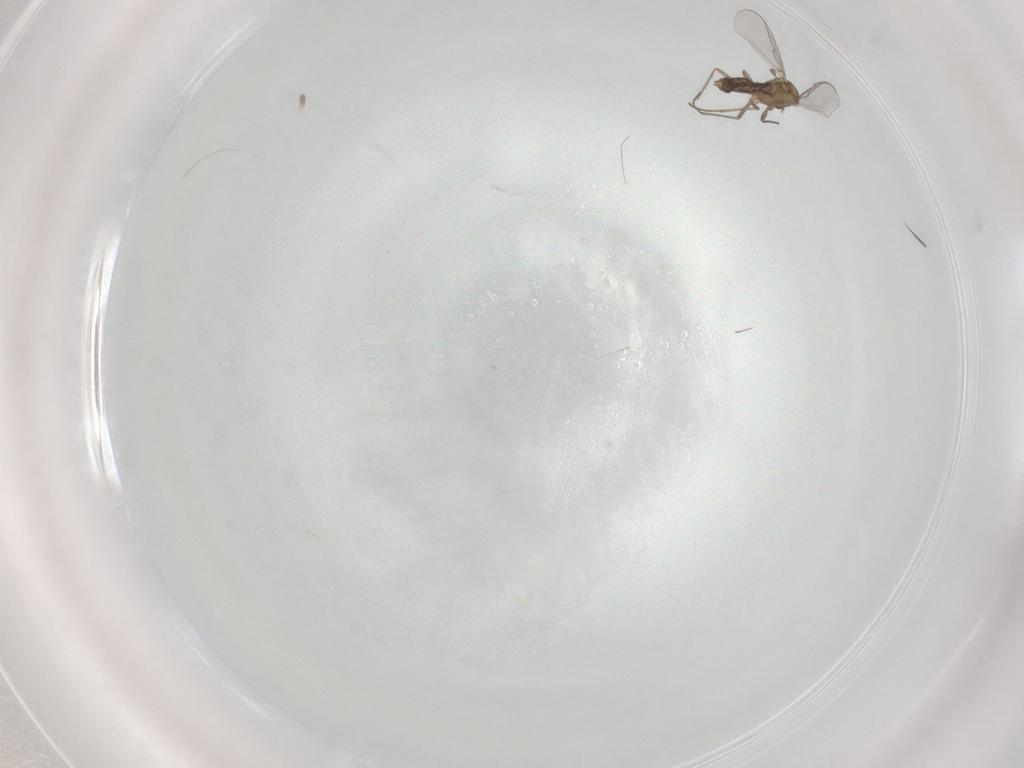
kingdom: Animalia
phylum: Arthropoda
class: Insecta
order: Diptera
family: Chironomidae
